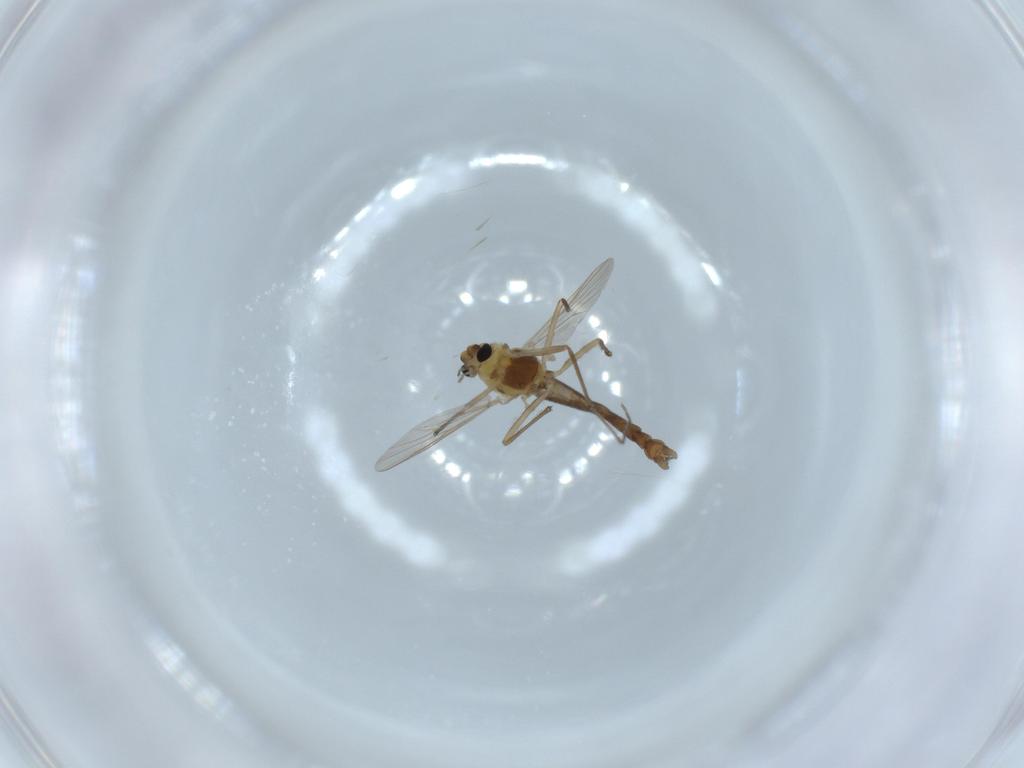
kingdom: Animalia
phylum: Arthropoda
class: Insecta
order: Diptera
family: Chironomidae
